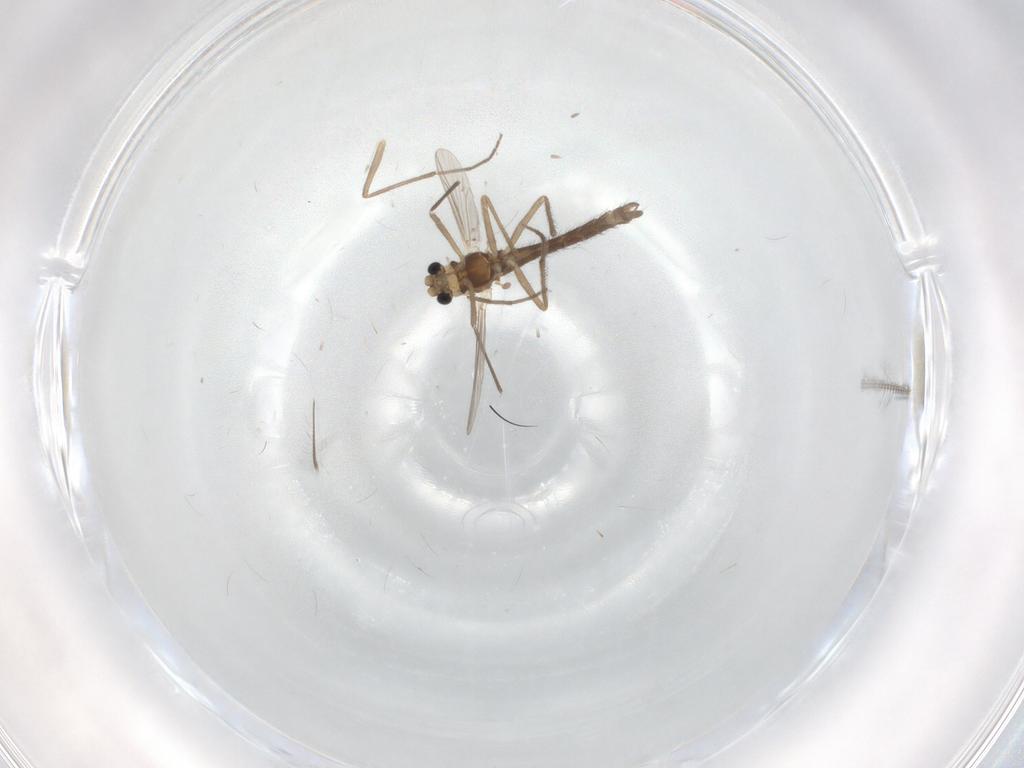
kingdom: Animalia
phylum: Arthropoda
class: Insecta
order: Diptera
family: Chironomidae
